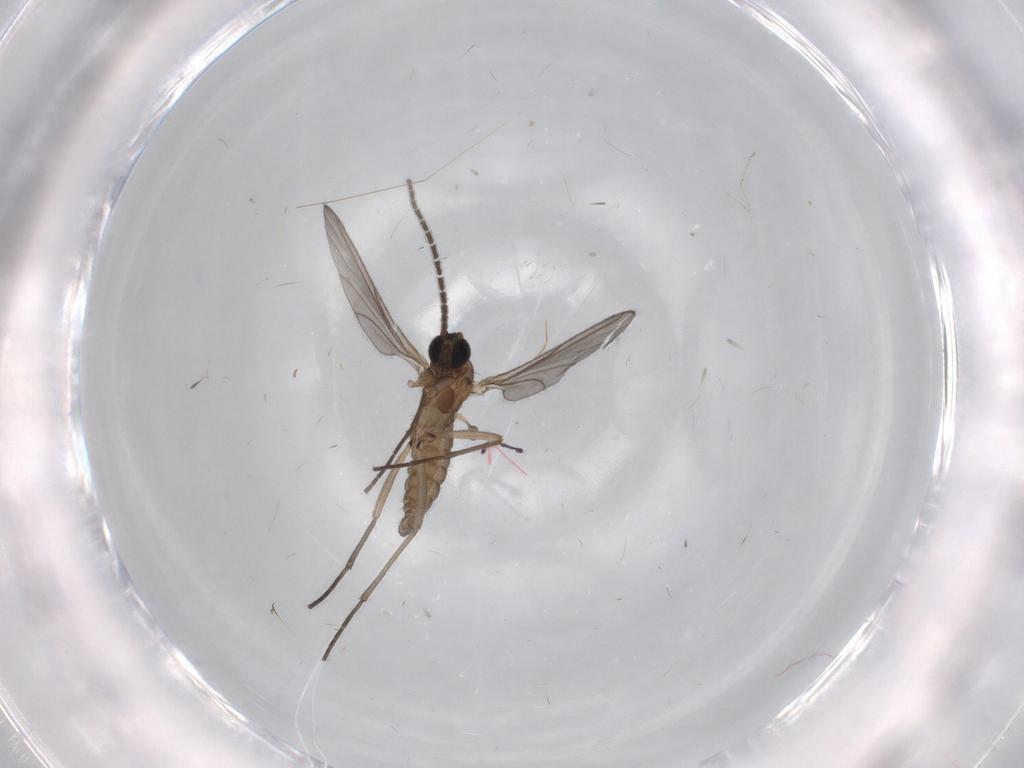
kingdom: Animalia
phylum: Arthropoda
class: Insecta
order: Diptera
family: Sciaridae
